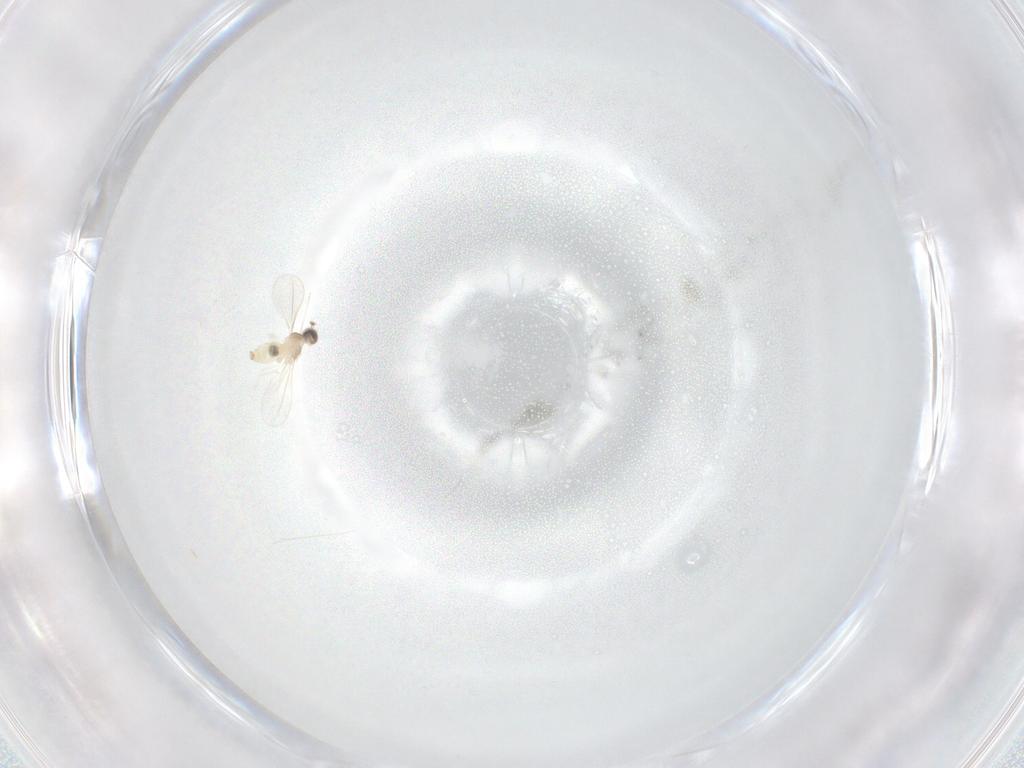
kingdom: Animalia
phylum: Arthropoda
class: Insecta
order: Diptera
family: Cecidomyiidae
